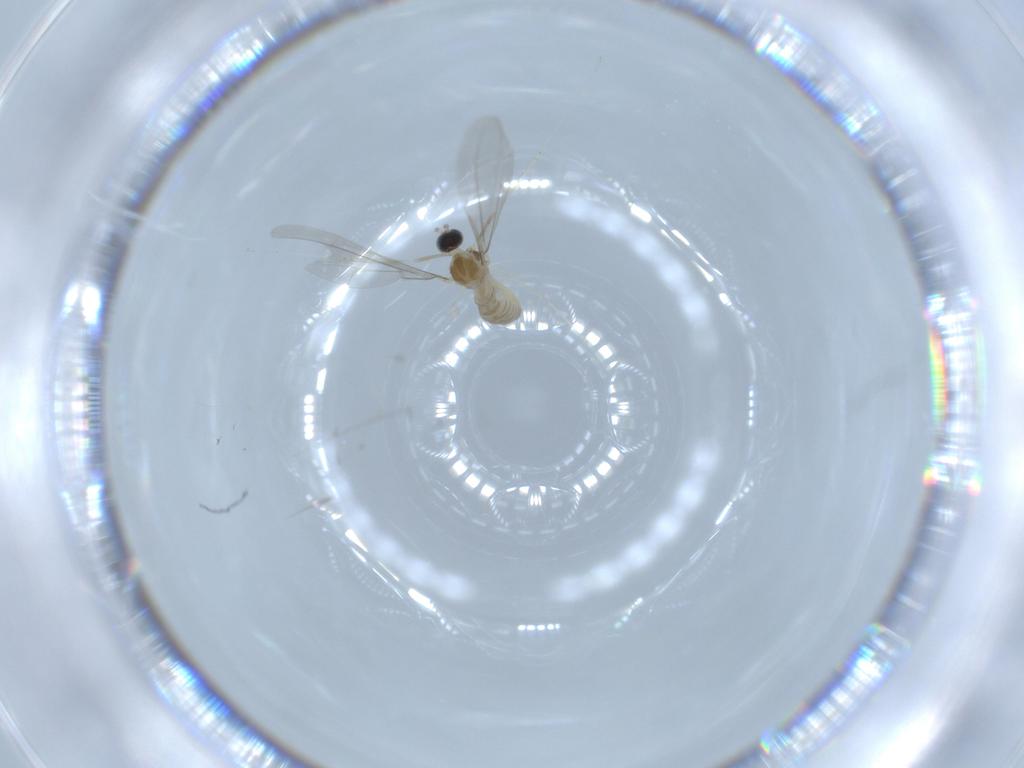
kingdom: Animalia
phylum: Arthropoda
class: Insecta
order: Diptera
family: Cecidomyiidae
